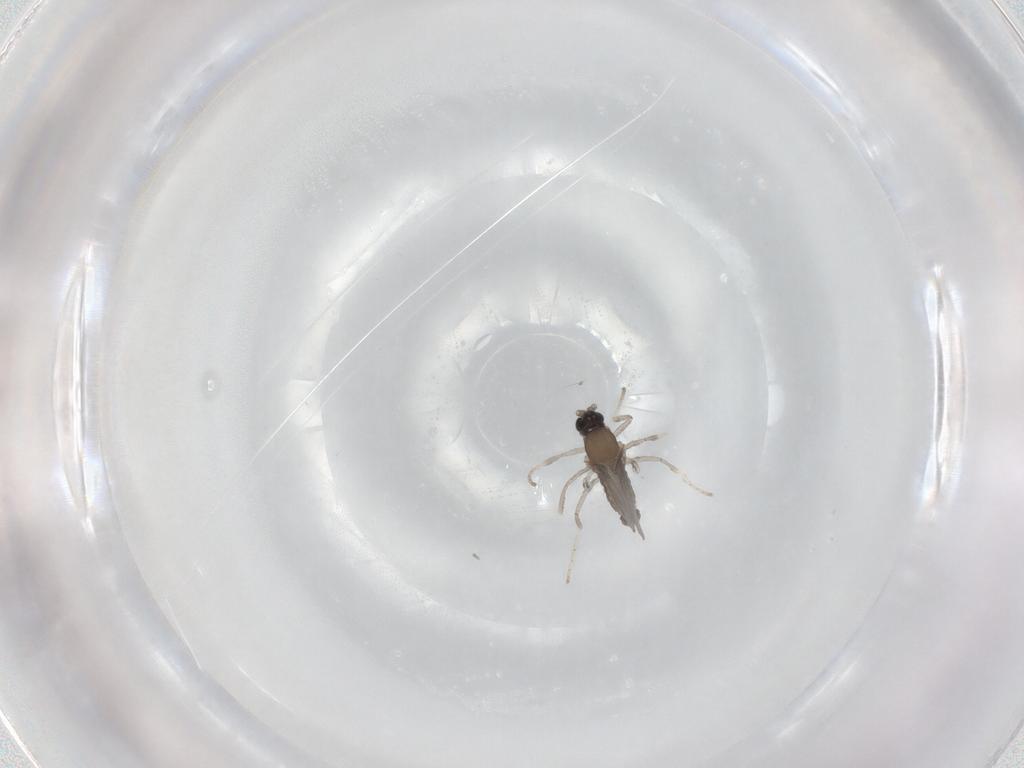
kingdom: Animalia
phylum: Arthropoda
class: Insecta
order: Diptera
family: Cecidomyiidae
